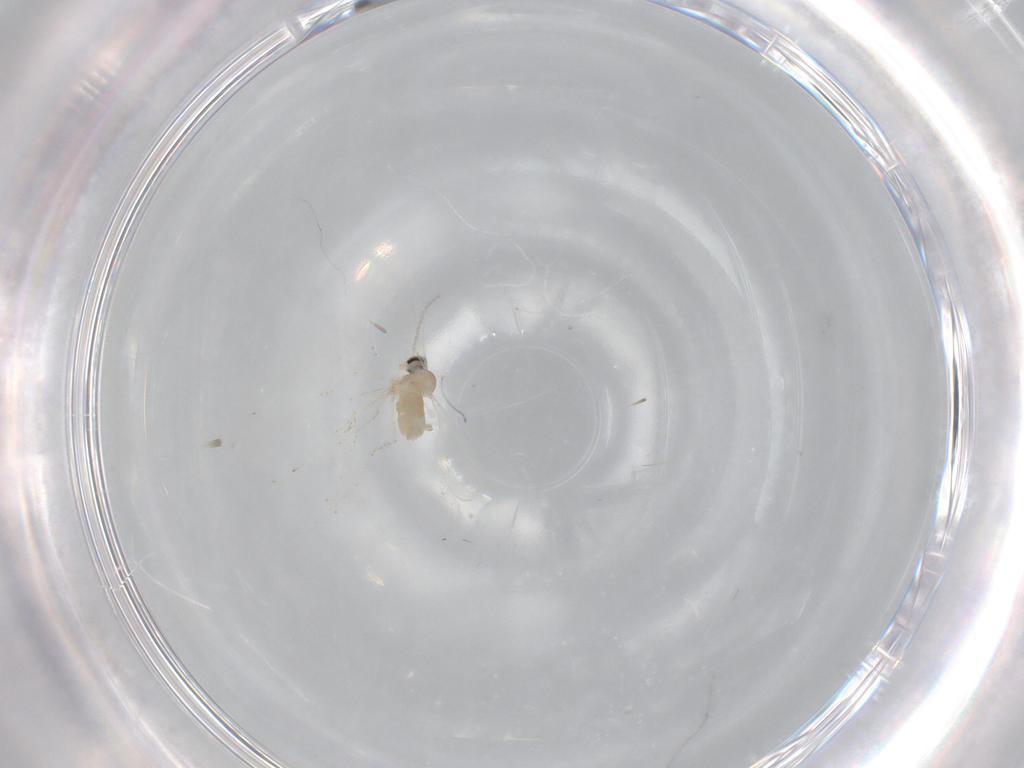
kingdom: Animalia
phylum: Arthropoda
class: Insecta
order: Diptera
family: Cecidomyiidae
